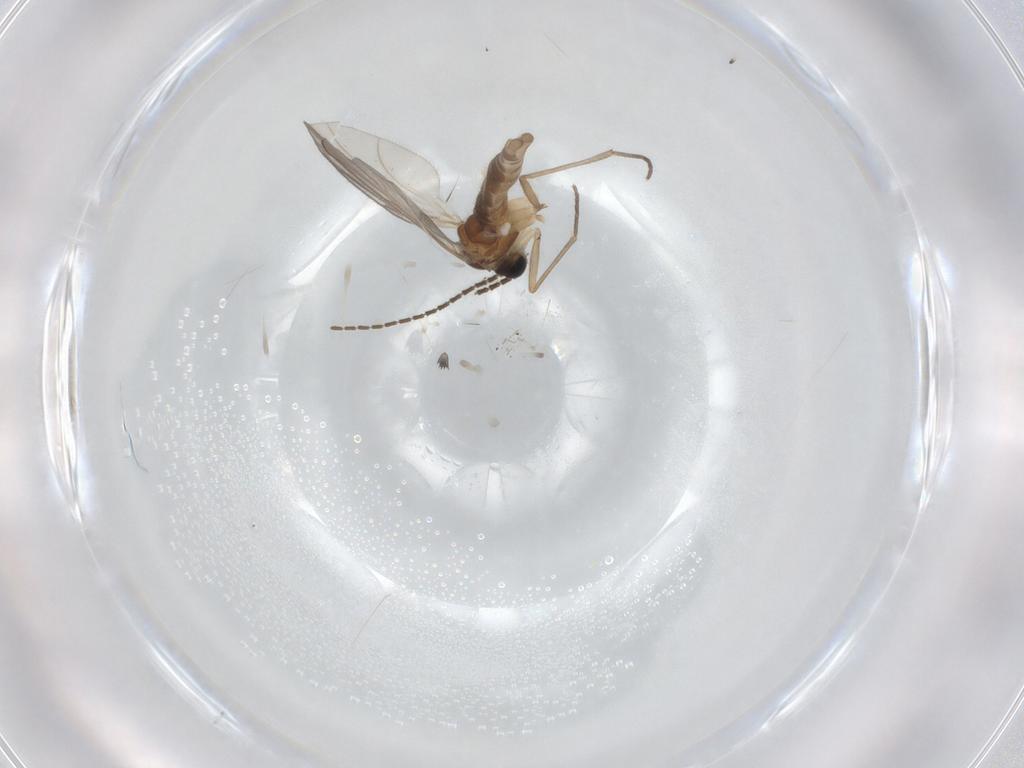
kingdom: Animalia
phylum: Arthropoda
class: Insecta
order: Diptera
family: Sciaridae
